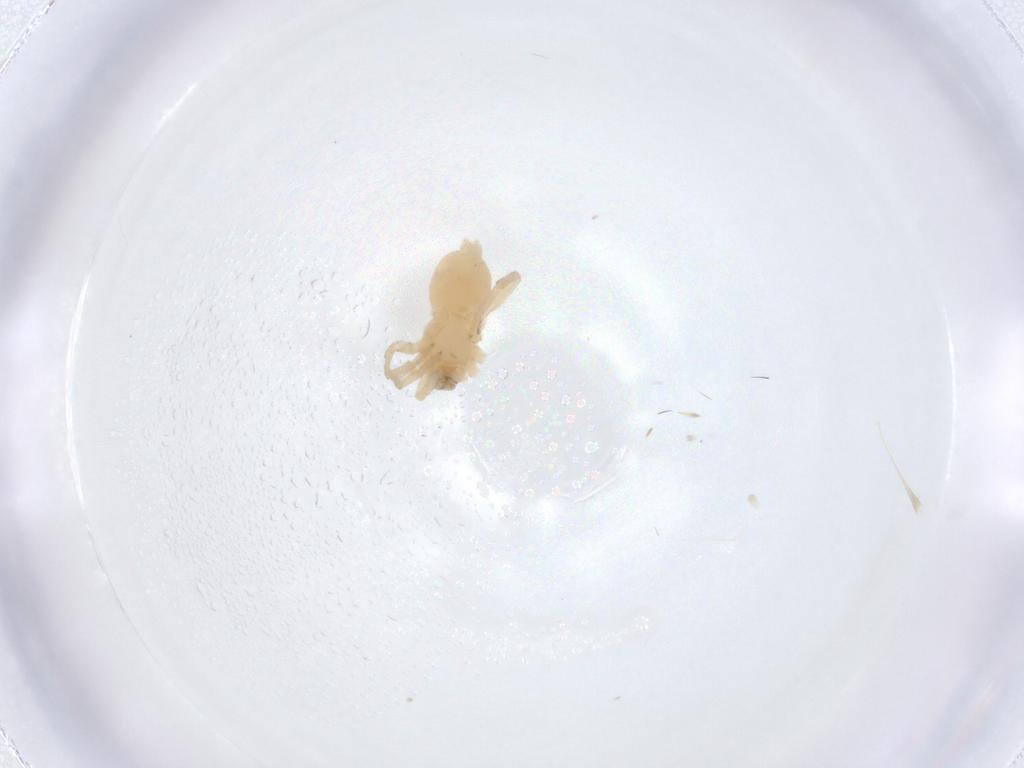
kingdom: Animalia
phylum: Arthropoda
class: Arachnida
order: Araneae
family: Corinnidae
